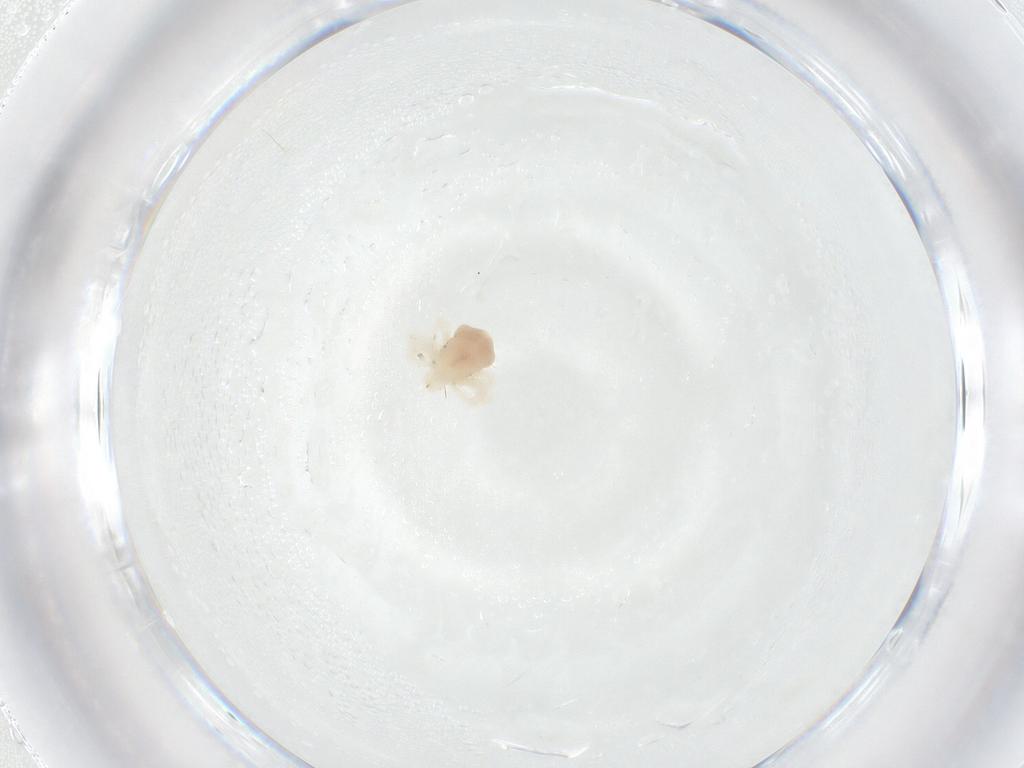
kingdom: Animalia
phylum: Arthropoda
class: Arachnida
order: Trombidiformes
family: Anystidae
